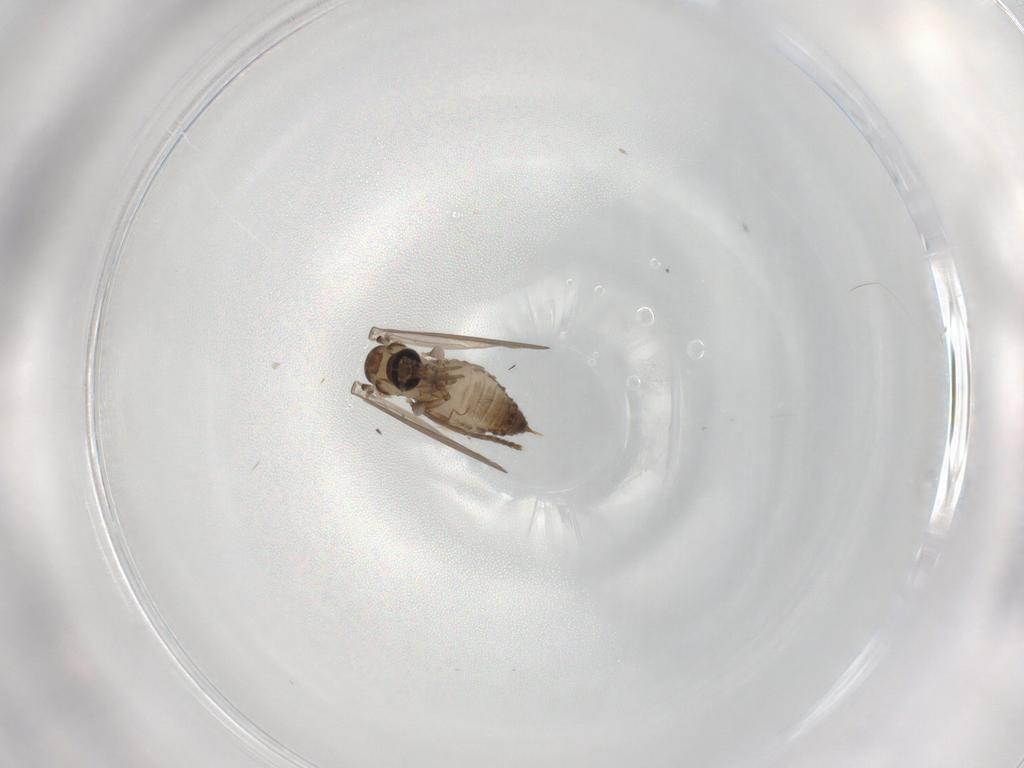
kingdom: Animalia
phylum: Arthropoda
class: Insecta
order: Diptera
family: Psychodidae
